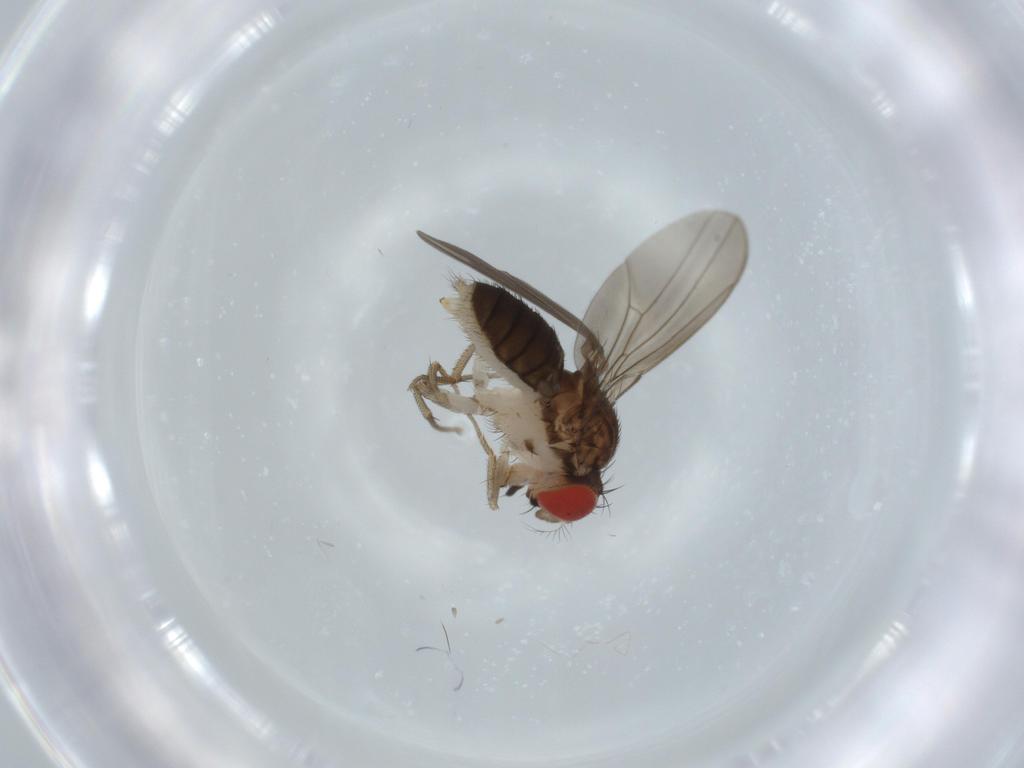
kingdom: Animalia
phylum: Arthropoda
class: Insecta
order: Diptera
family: Drosophilidae
